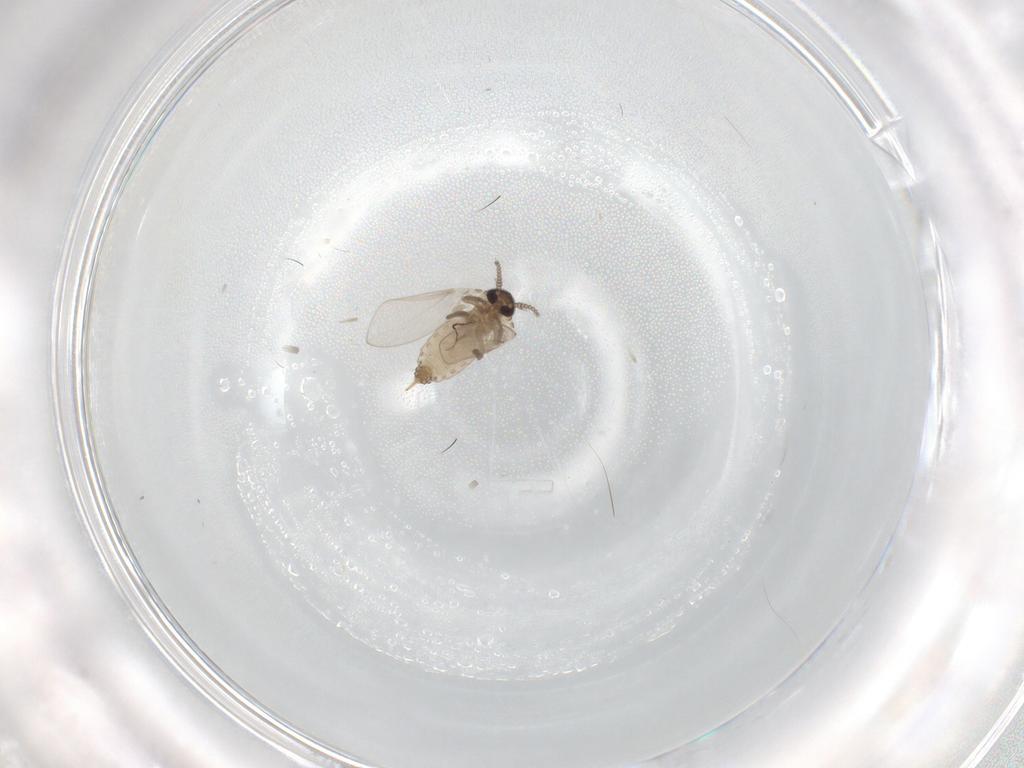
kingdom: Animalia
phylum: Arthropoda
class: Insecta
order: Diptera
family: Psychodidae
